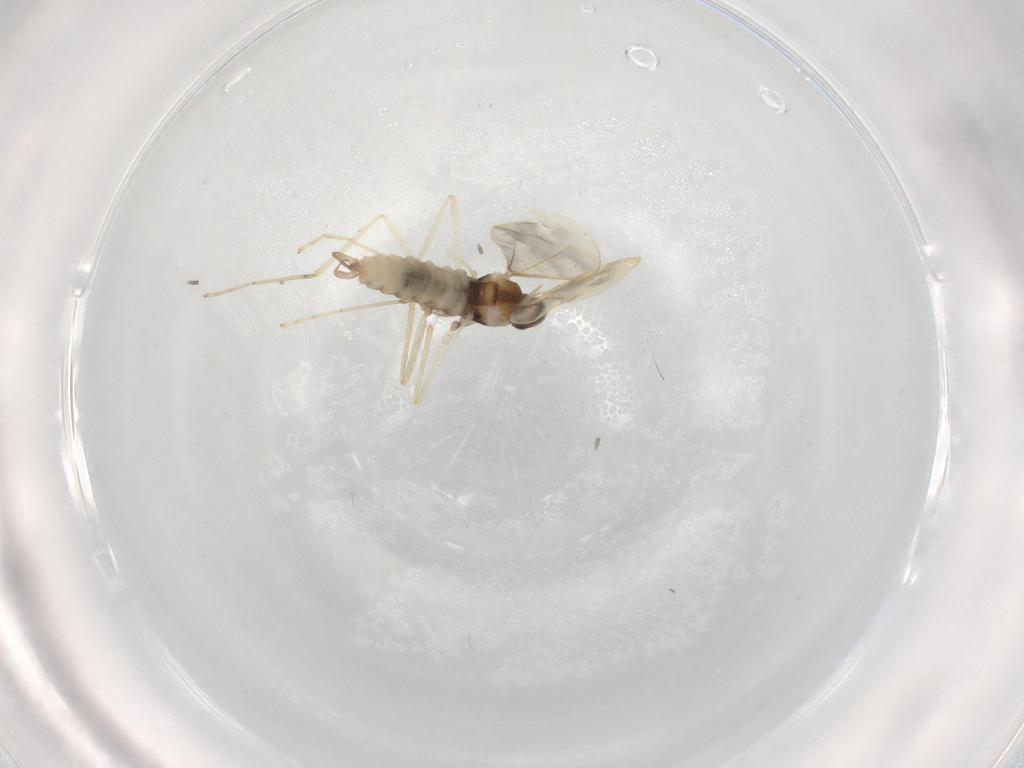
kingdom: Animalia
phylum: Arthropoda
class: Insecta
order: Diptera
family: Cecidomyiidae
